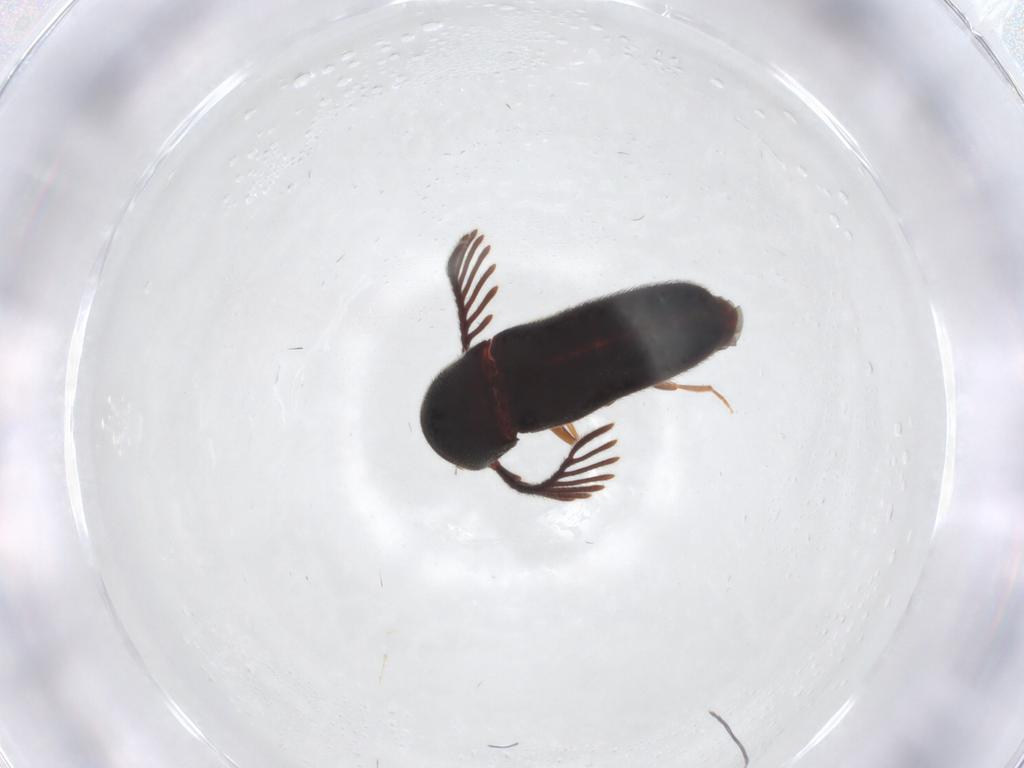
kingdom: Animalia
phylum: Arthropoda
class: Insecta
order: Coleoptera
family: Eucnemidae
